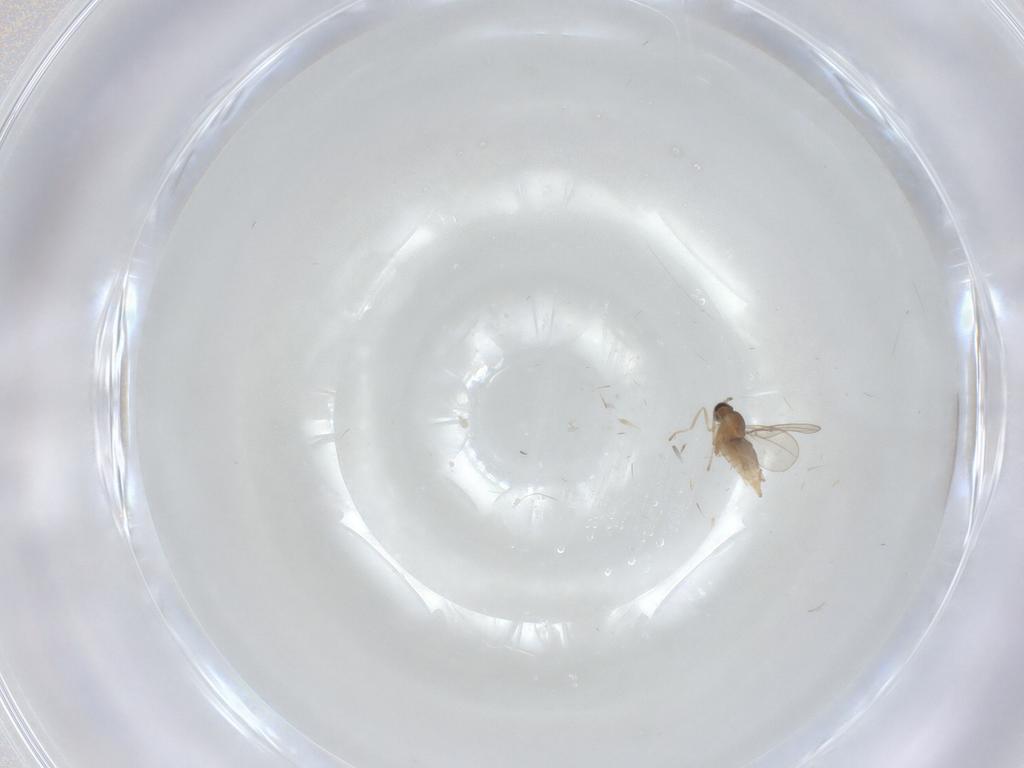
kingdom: Animalia
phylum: Arthropoda
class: Insecta
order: Diptera
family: Cecidomyiidae
